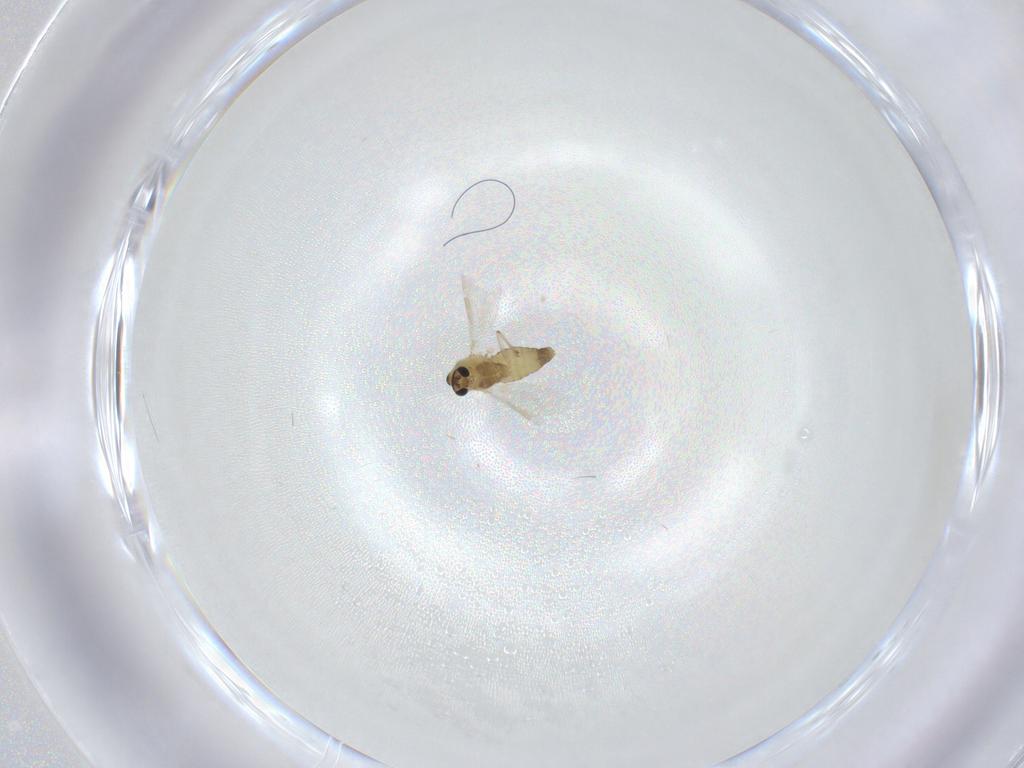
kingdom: Animalia
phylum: Arthropoda
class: Insecta
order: Diptera
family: Chironomidae
